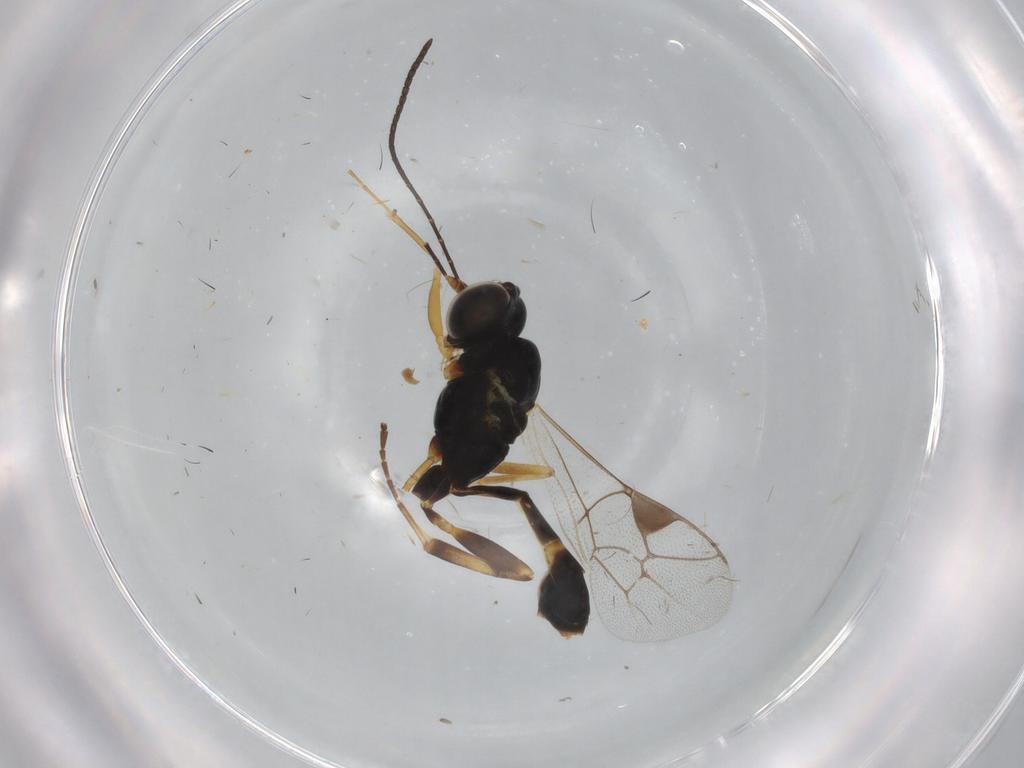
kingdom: Animalia
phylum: Arthropoda
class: Insecta
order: Hymenoptera
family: Ichneumonidae
